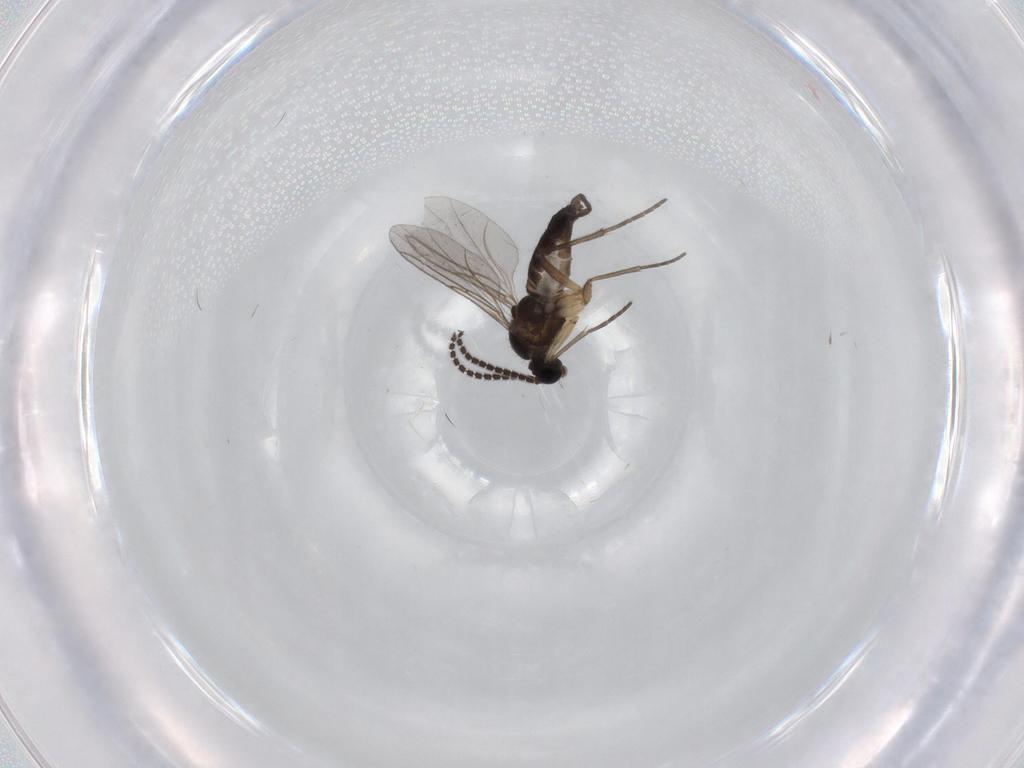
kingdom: Animalia
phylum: Arthropoda
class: Insecta
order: Diptera
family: Sciaridae
